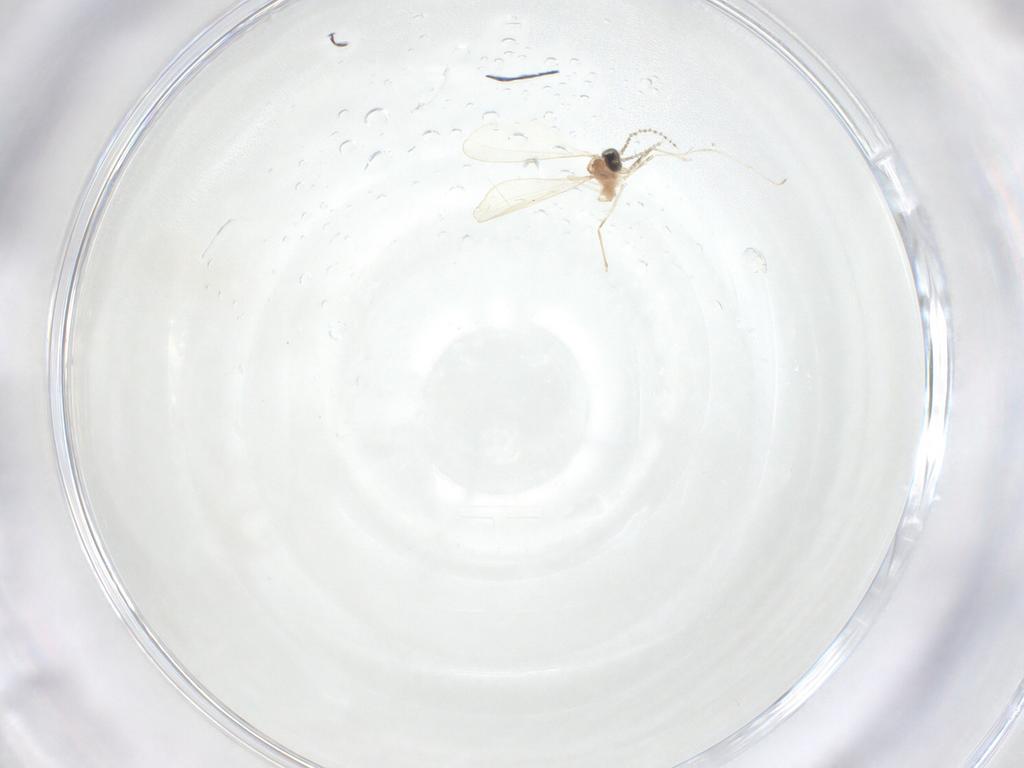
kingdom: Animalia
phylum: Arthropoda
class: Insecta
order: Diptera
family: Cecidomyiidae
